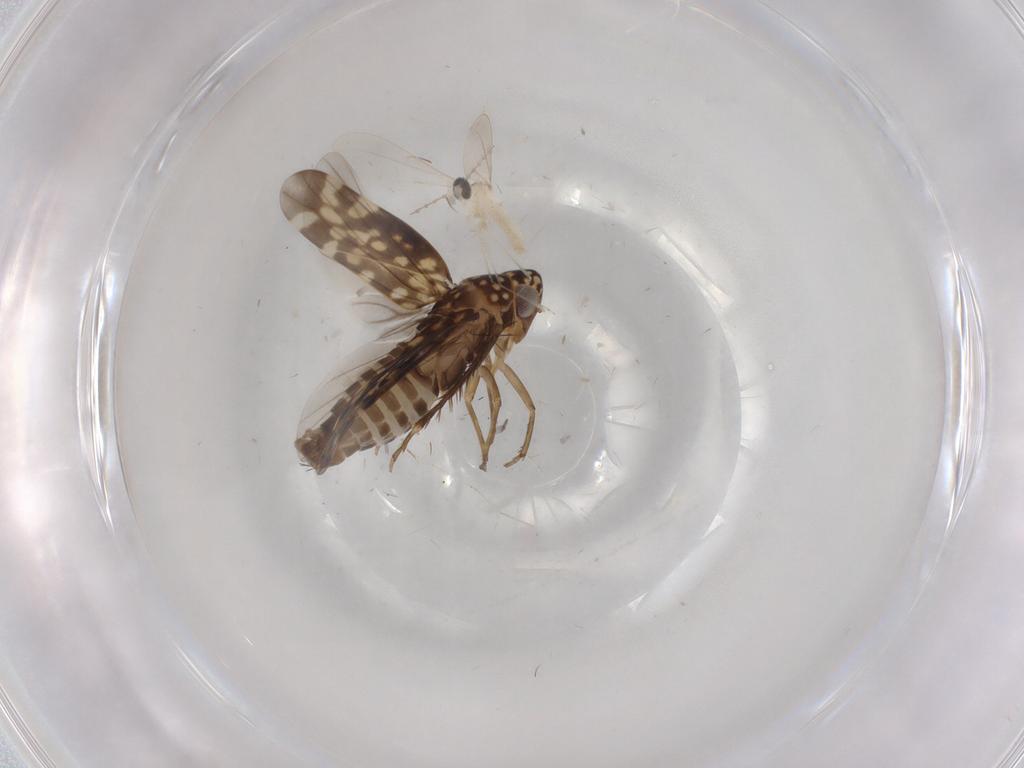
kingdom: Animalia
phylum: Arthropoda
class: Insecta
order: Hemiptera
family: Cicadellidae
